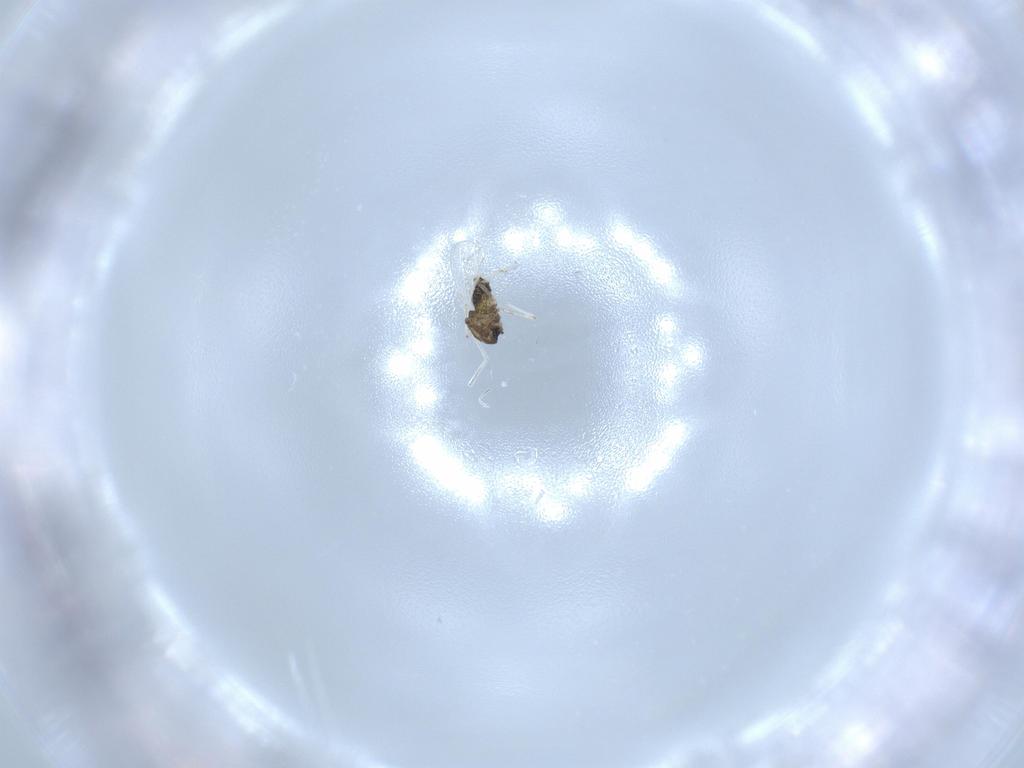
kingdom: Animalia
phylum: Arthropoda
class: Insecta
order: Diptera
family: Chironomidae
